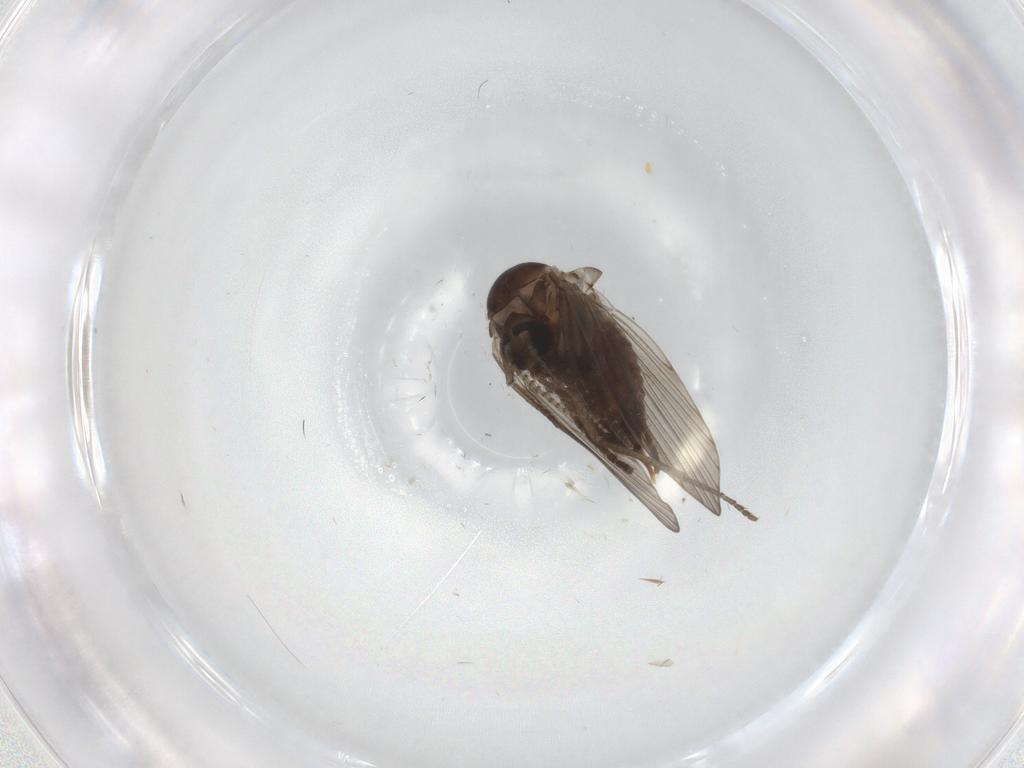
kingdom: Animalia
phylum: Arthropoda
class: Insecta
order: Diptera
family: Psychodidae
